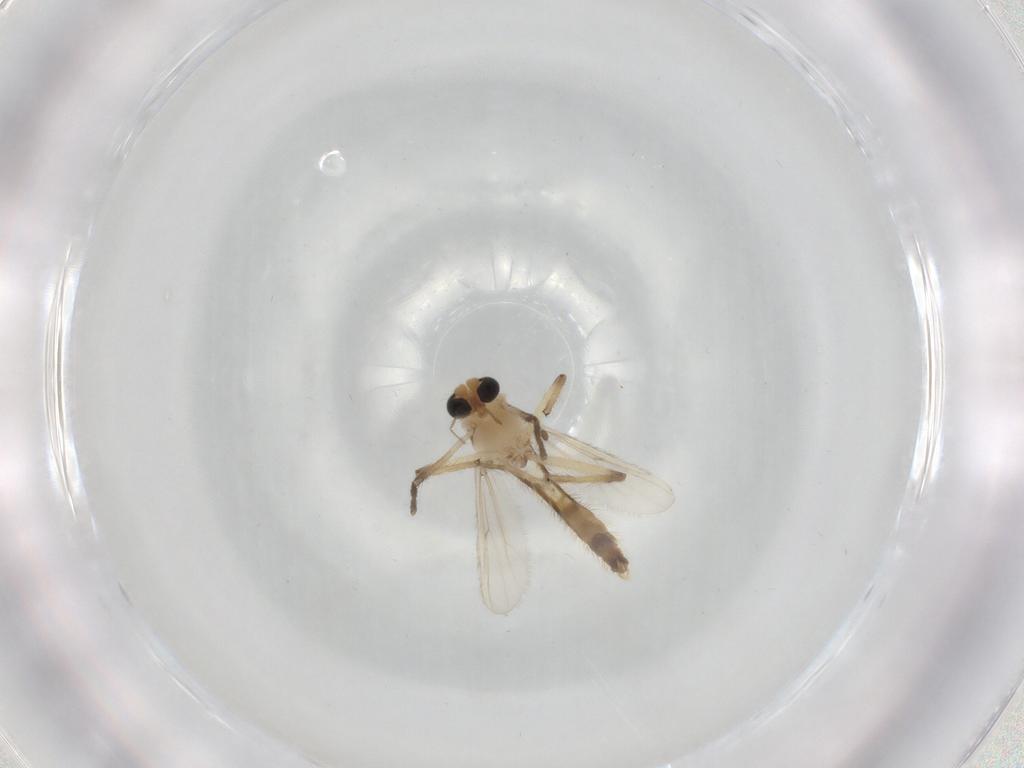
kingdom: Animalia
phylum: Arthropoda
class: Insecta
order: Diptera
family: Chironomidae
